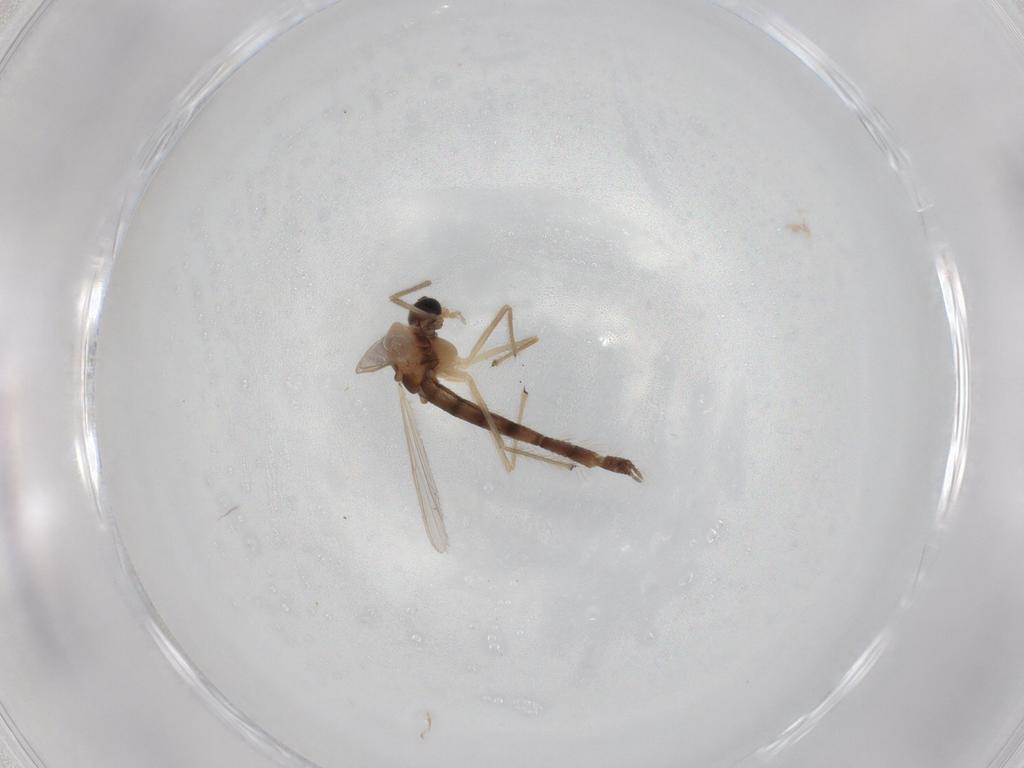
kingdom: Animalia
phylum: Arthropoda
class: Insecta
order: Diptera
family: Chironomidae
